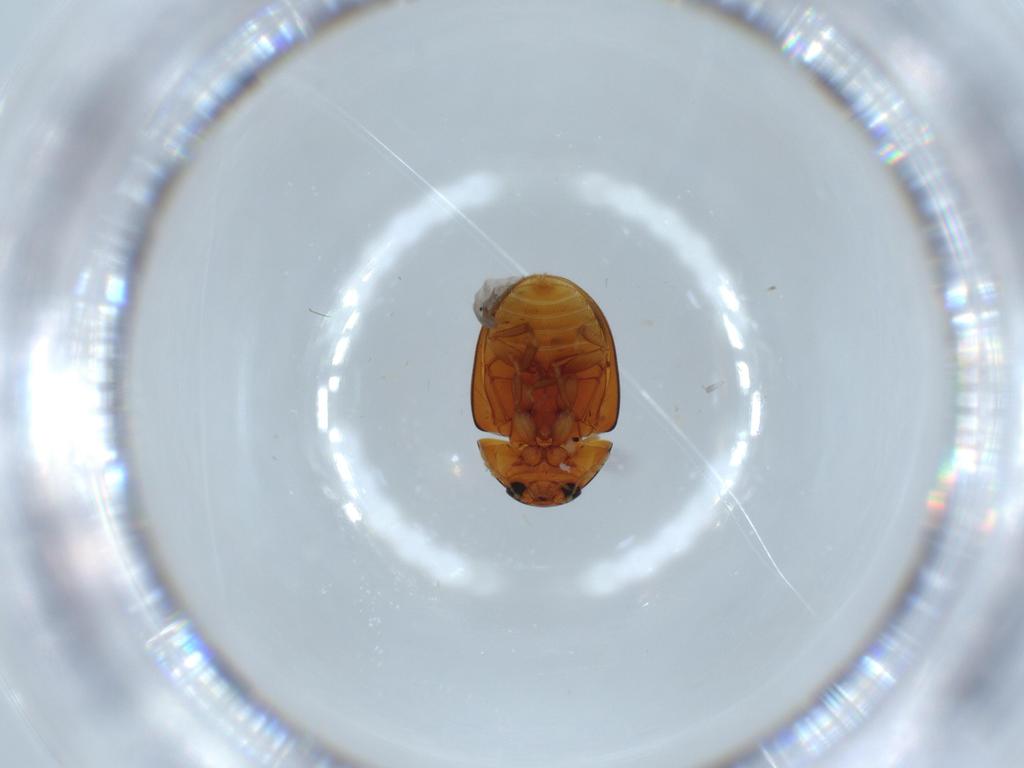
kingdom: Animalia
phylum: Arthropoda
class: Insecta
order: Coleoptera
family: Phalacridae
